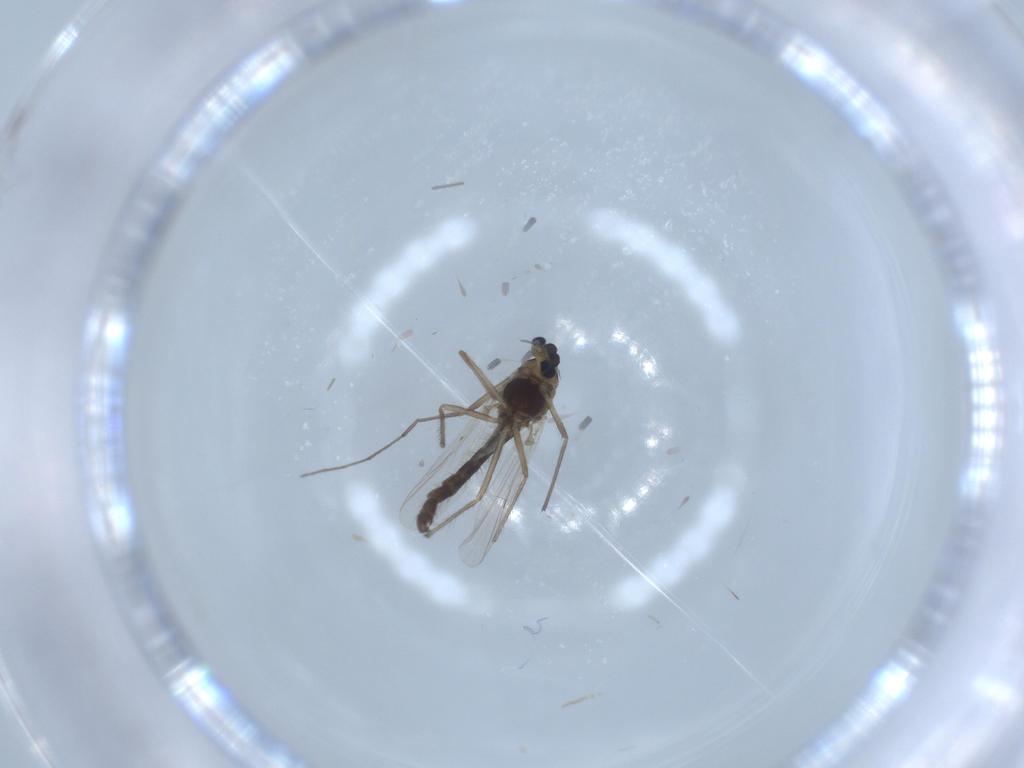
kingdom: Animalia
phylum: Arthropoda
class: Insecta
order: Diptera
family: Chironomidae
